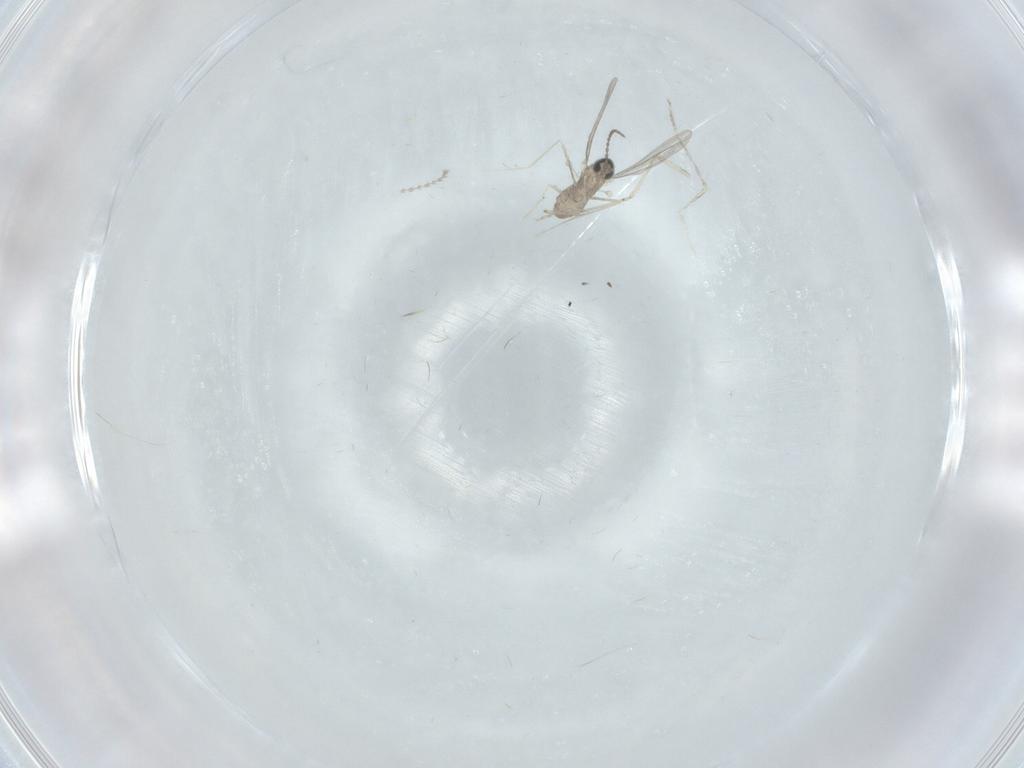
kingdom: Animalia
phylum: Arthropoda
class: Insecta
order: Diptera
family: Cecidomyiidae
